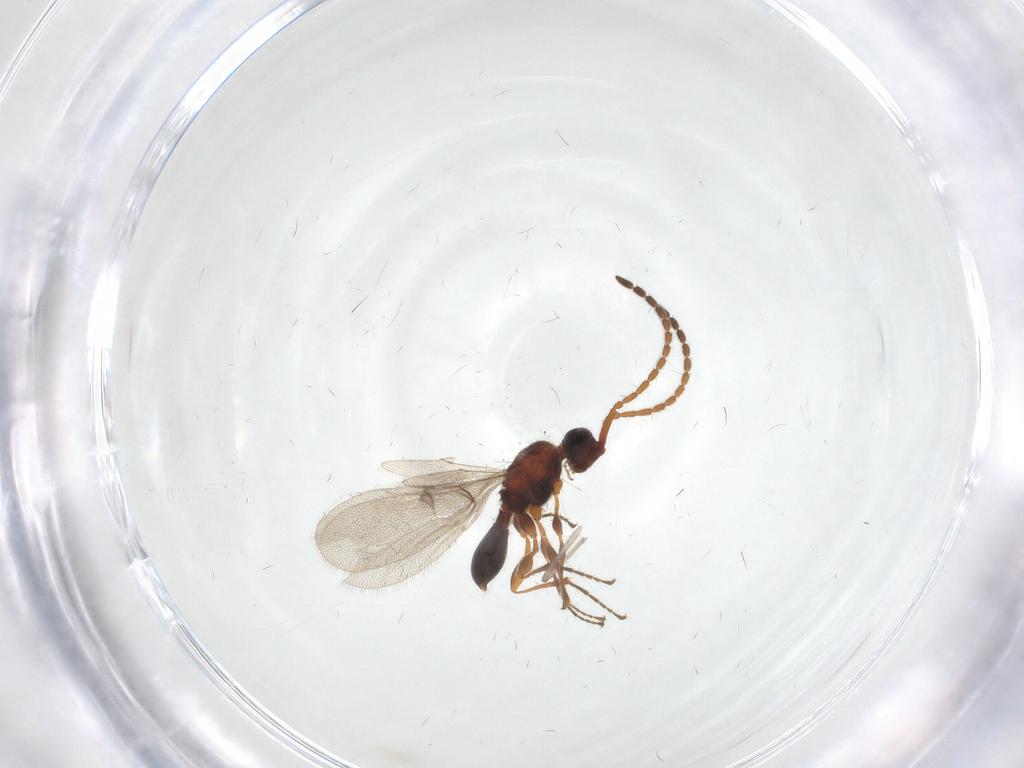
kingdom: Animalia
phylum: Arthropoda
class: Insecta
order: Hymenoptera
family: Diapriidae
